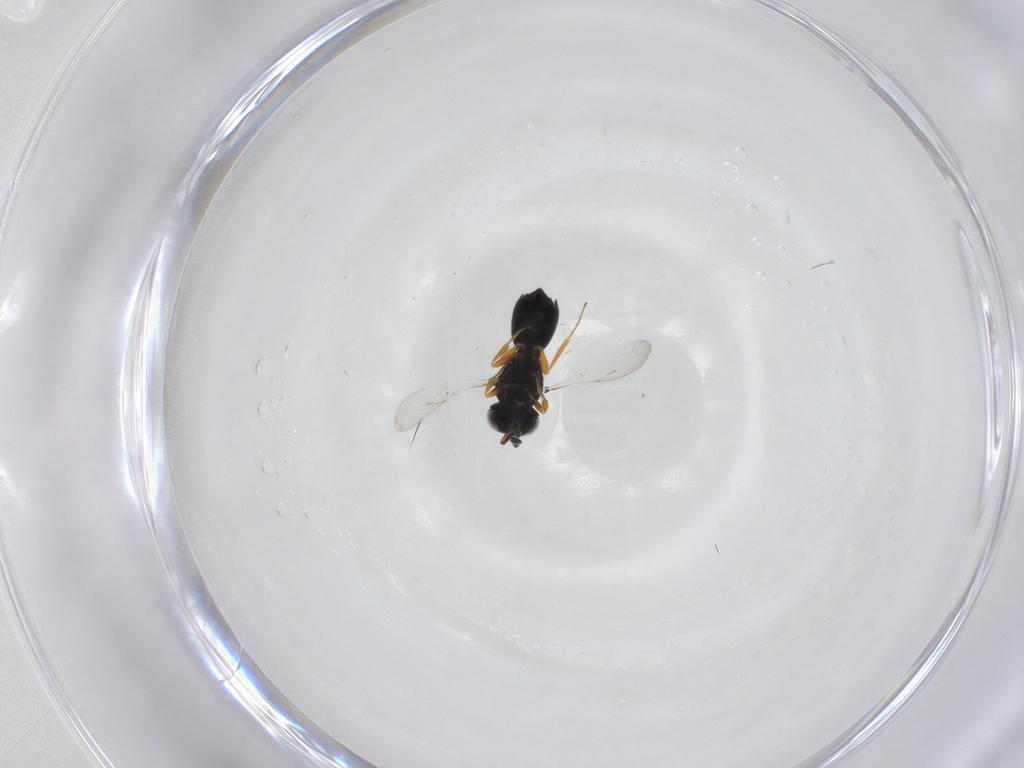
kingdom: Animalia
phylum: Arthropoda
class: Insecta
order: Hymenoptera
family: Scelionidae
